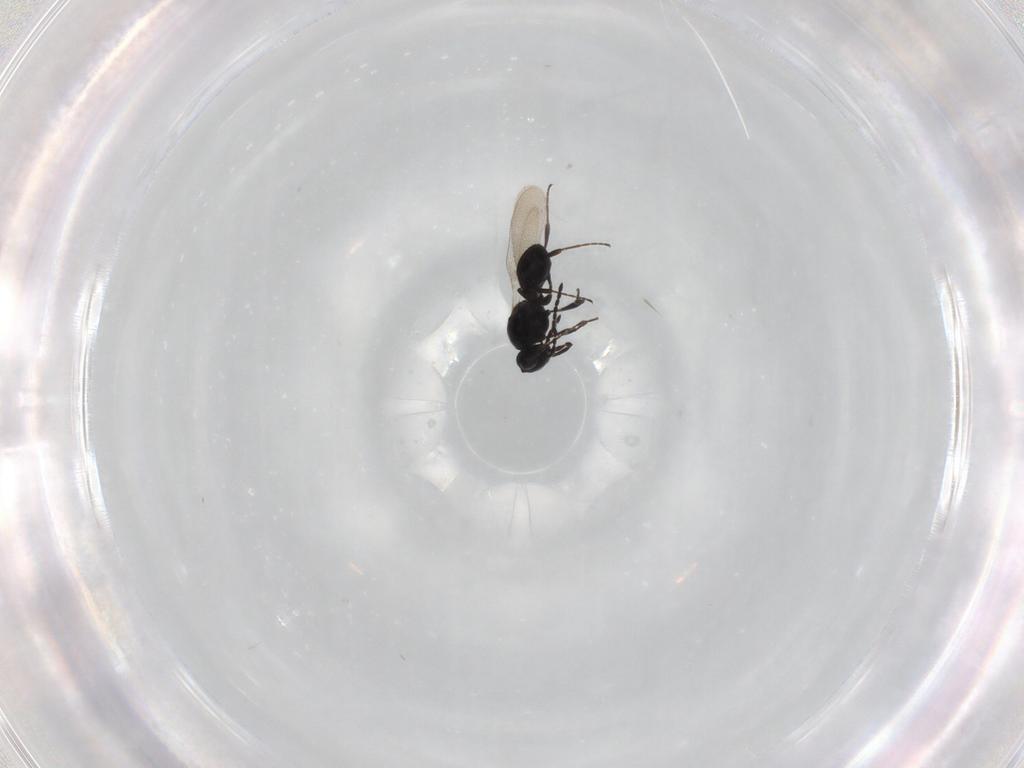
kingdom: Animalia
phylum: Arthropoda
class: Insecta
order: Hymenoptera
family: Platygastridae
